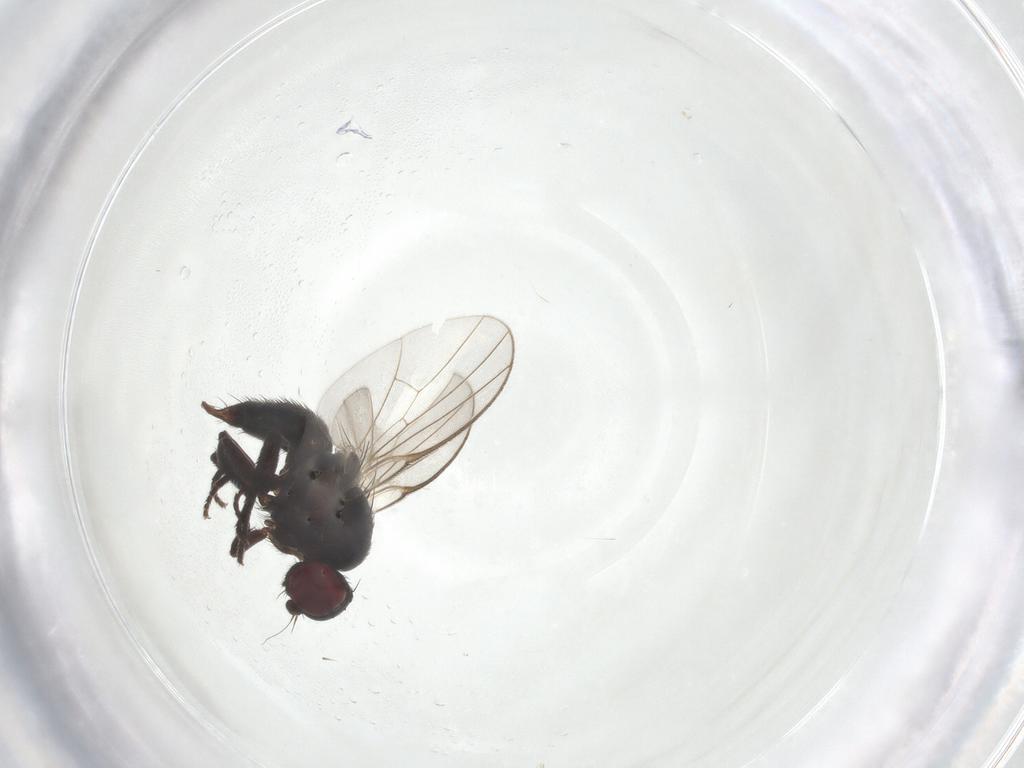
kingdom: Animalia
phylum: Arthropoda
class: Insecta
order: Diptera
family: Agromyzidae
